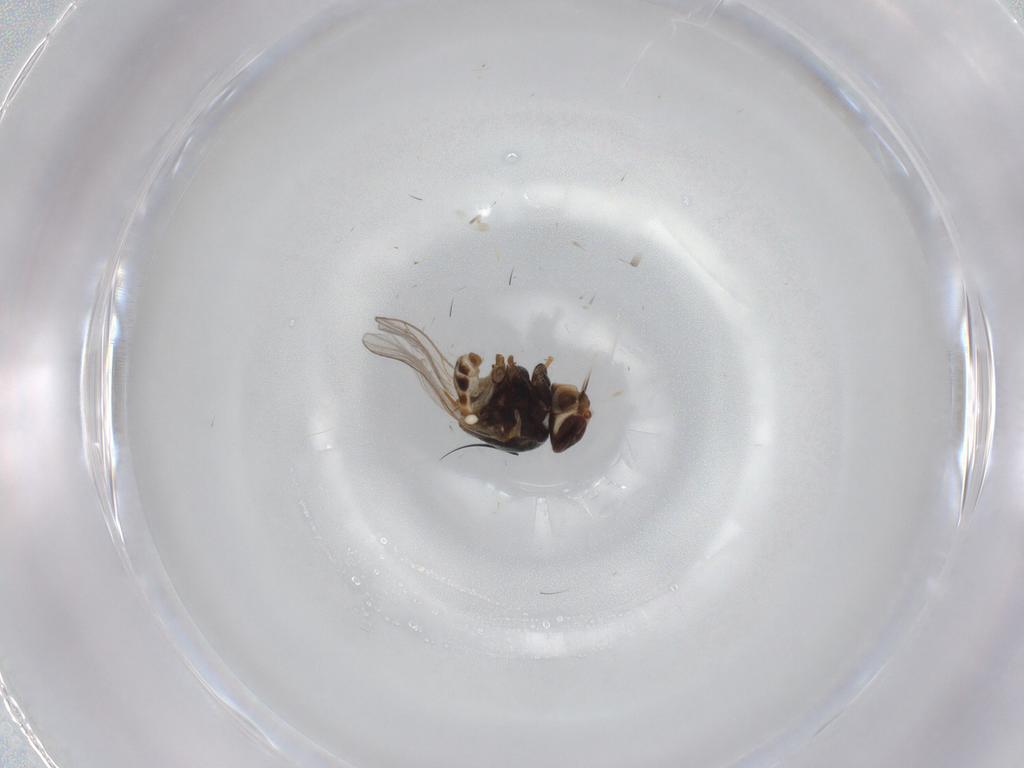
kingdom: Animalia
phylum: Arthropoda
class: Insecta
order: Diptera
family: Chloropidae
